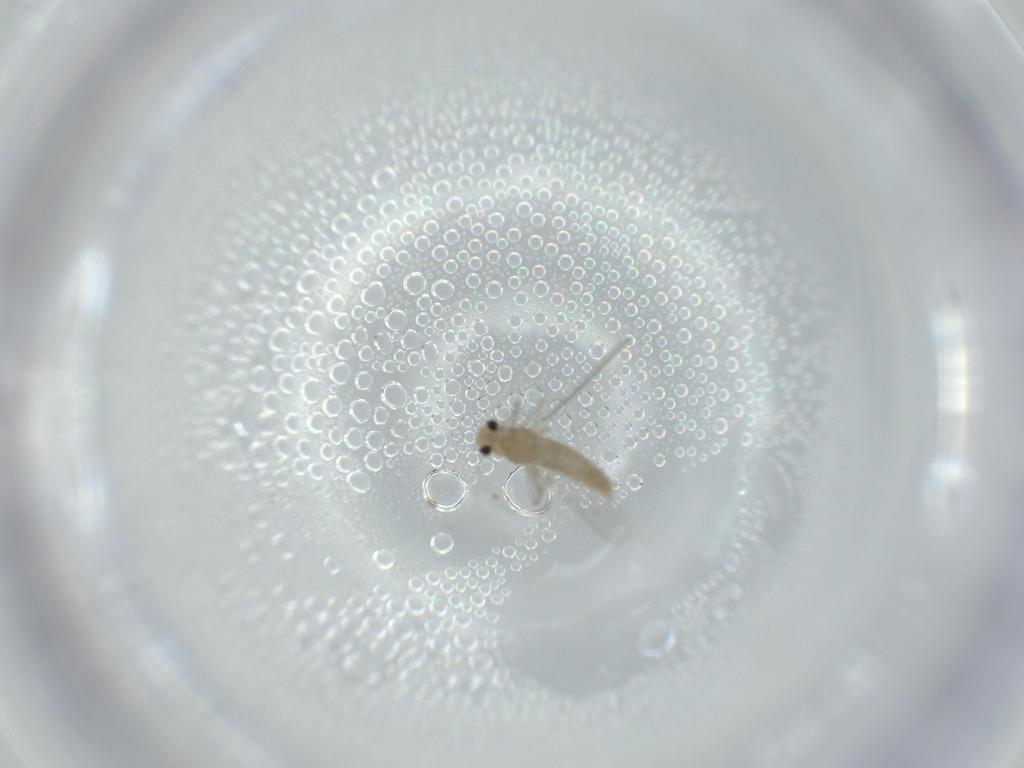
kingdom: Animalia
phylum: Arthropoda
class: Insecta
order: Diptera
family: Chironomidae
